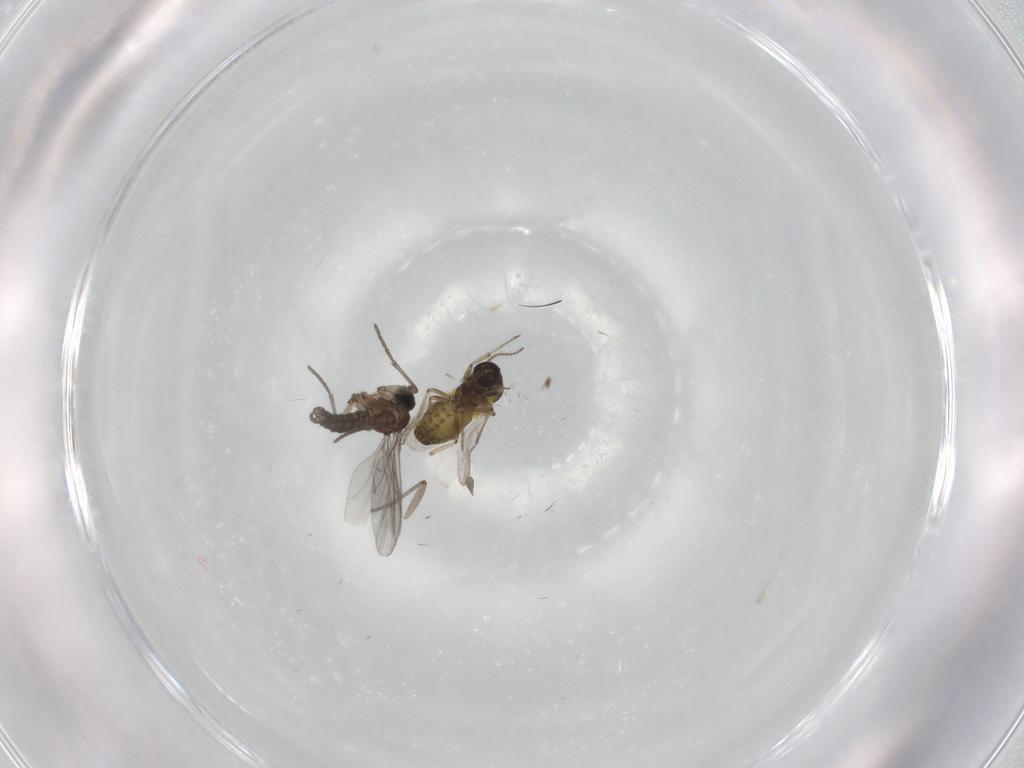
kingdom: Animalia
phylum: Arthropoda
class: Insecta
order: Diptera
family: Ceratopogonidae
